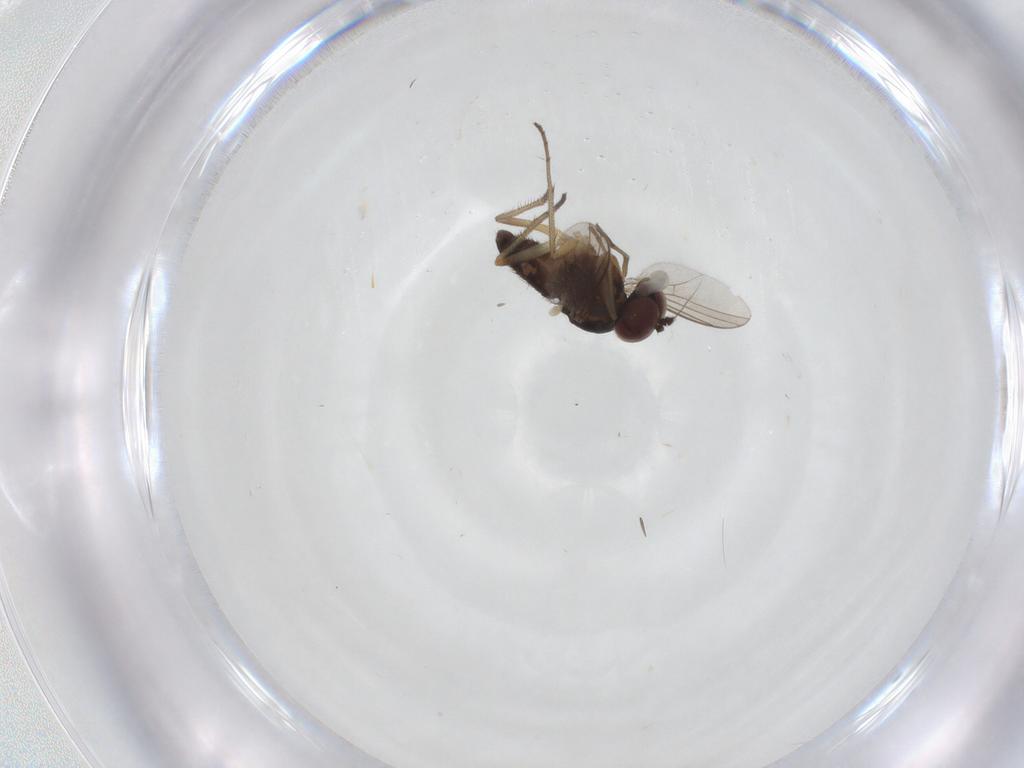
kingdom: Animalia
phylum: Arthropoda
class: Insecta
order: Diptera
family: Dolichopodidae
